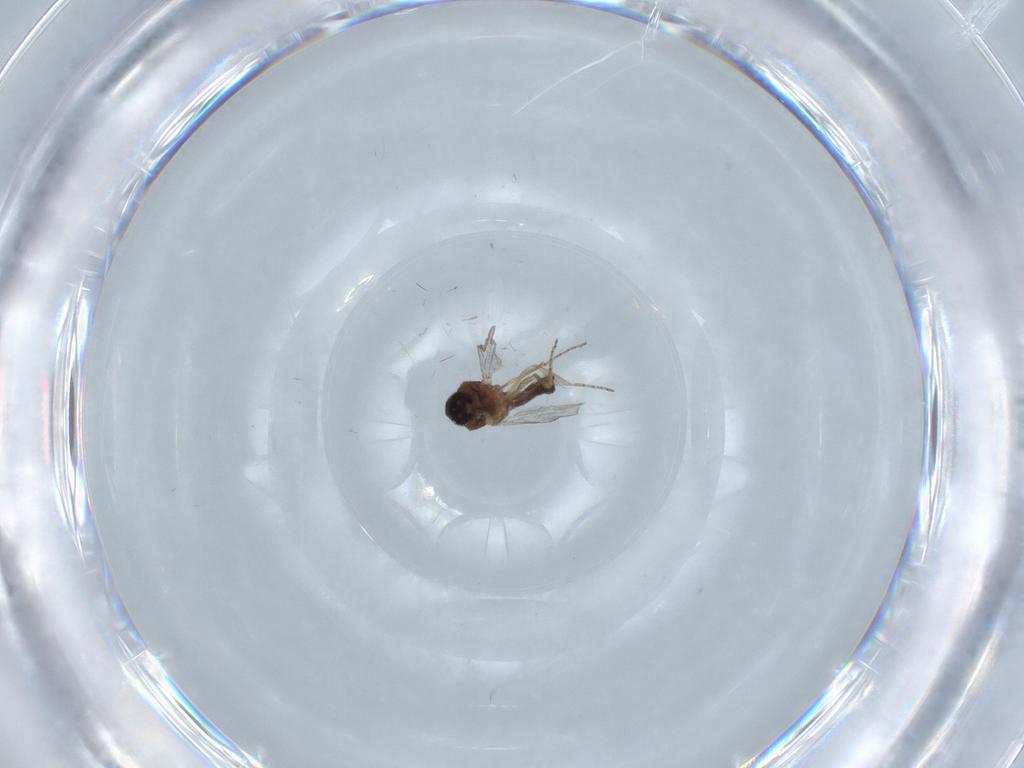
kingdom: Animalia
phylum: Arthropoda
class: Insecta
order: Diptera
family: Ceratopogonidae
